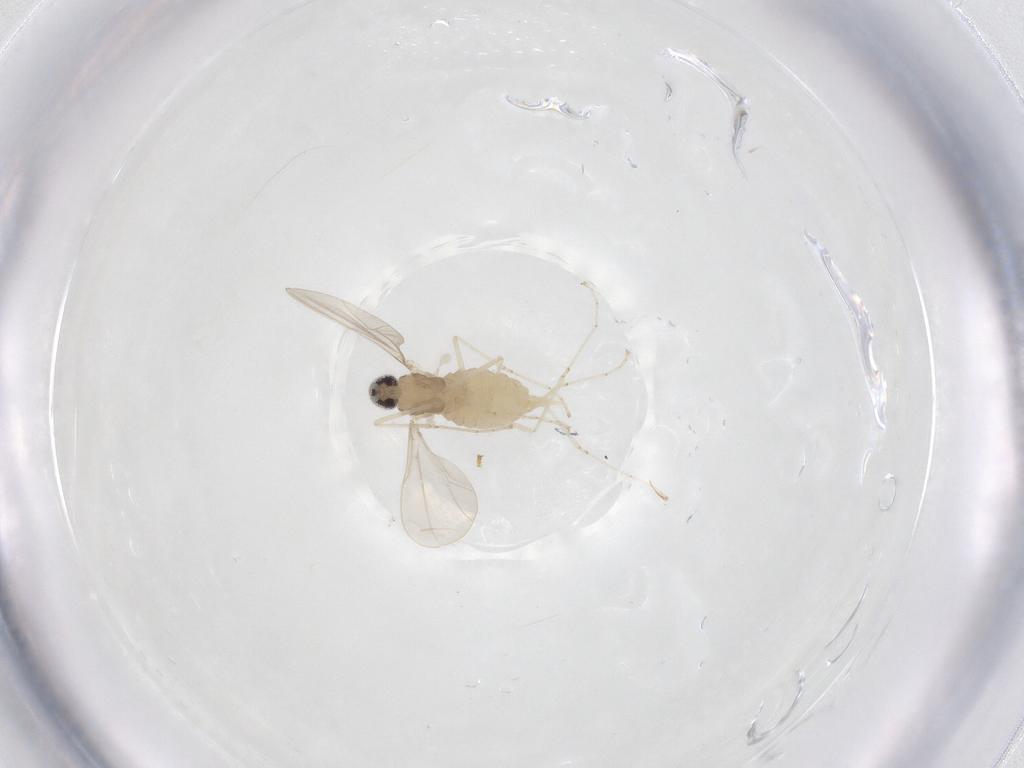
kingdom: Animalia
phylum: Arthropoda
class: Insecta
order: Diptera
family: Cecidomyiidae
